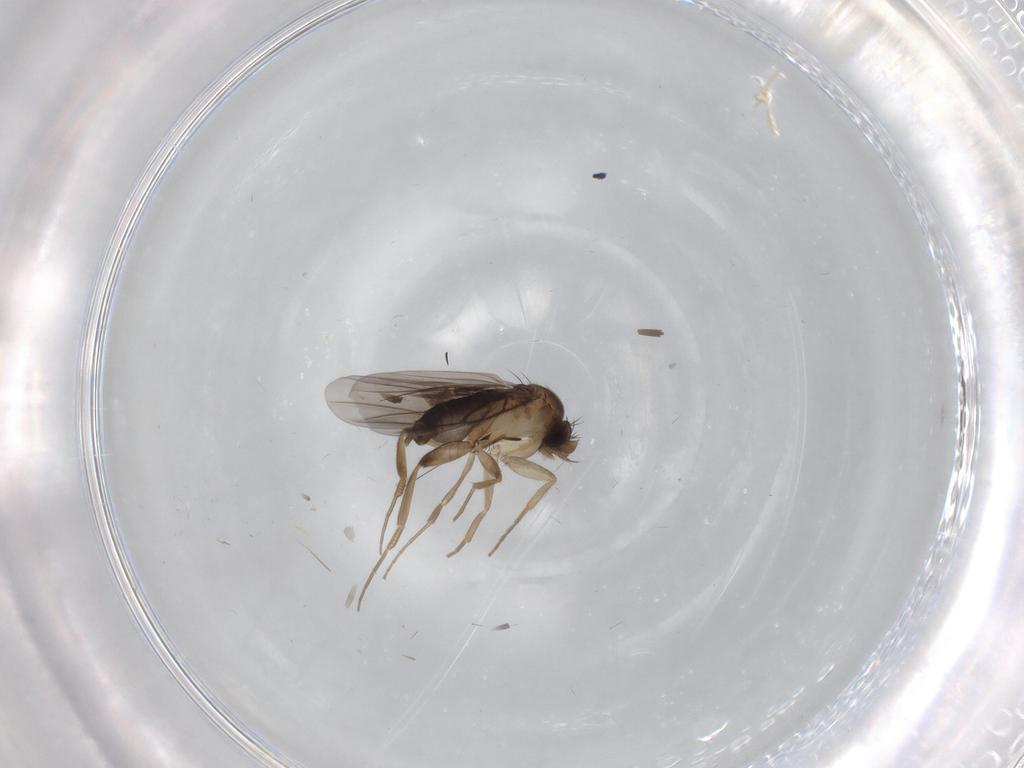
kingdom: Animalia
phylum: Arthropoda
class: Insecta
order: Diptera
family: Phoridae
